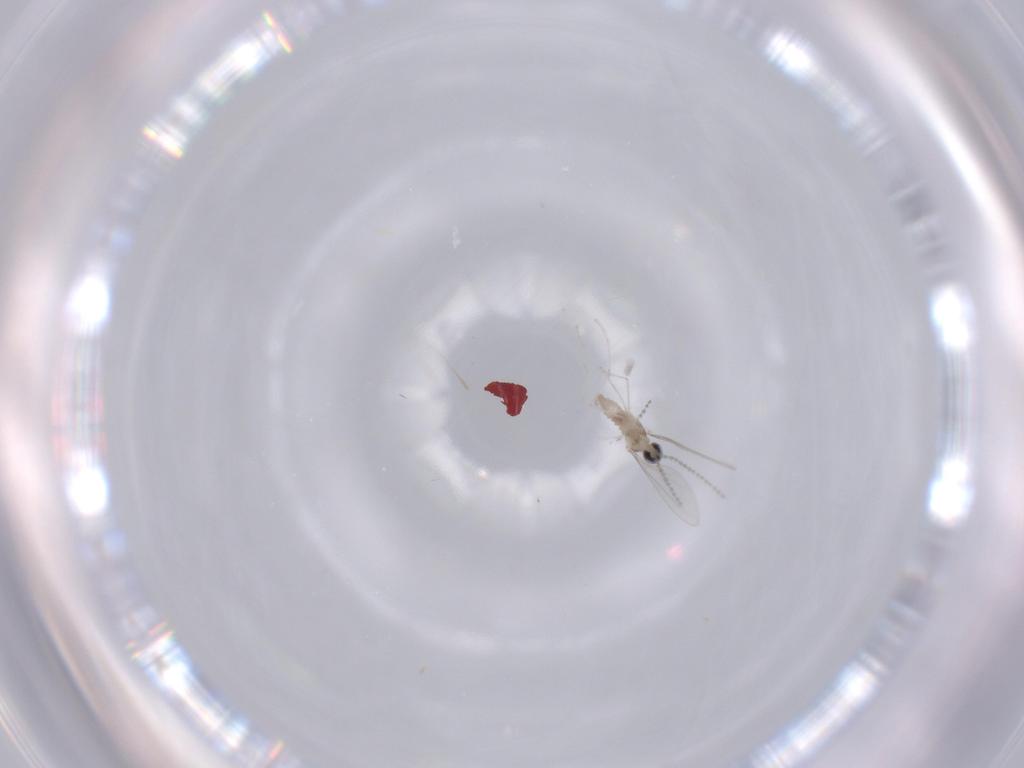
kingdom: Animalia
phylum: Arthropoda
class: Insecta
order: Diptera
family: Cecidomyiidae
